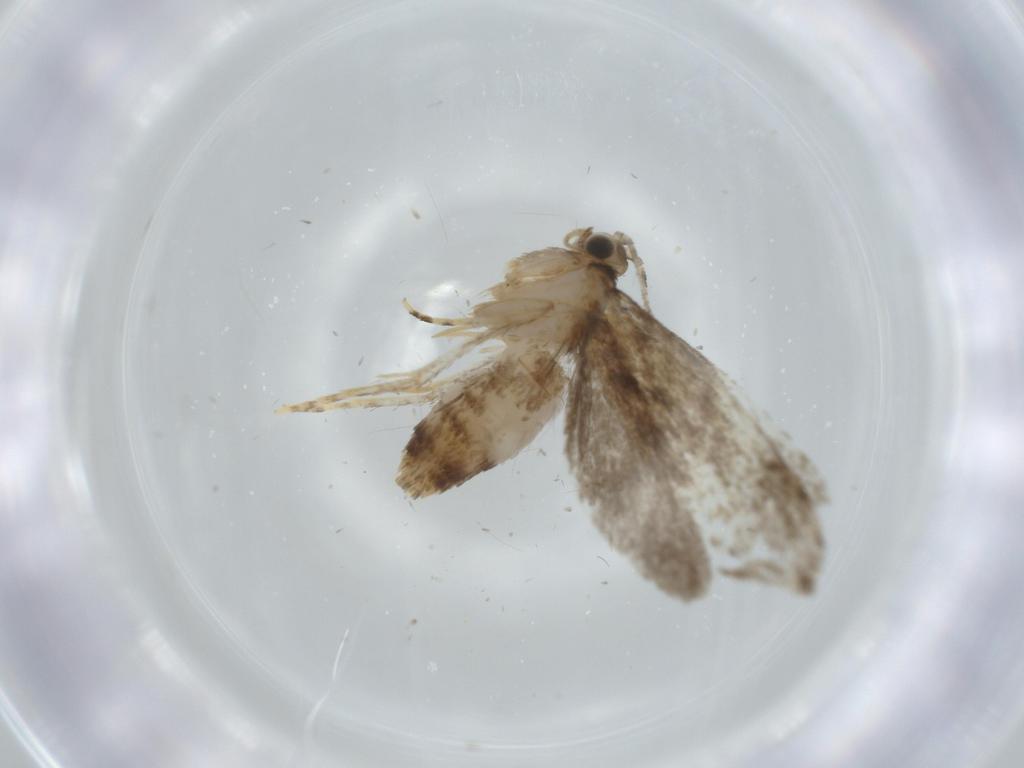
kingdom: Animalia
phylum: Arthropoda
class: Insecta
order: Lepidoptera
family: Tineidae
